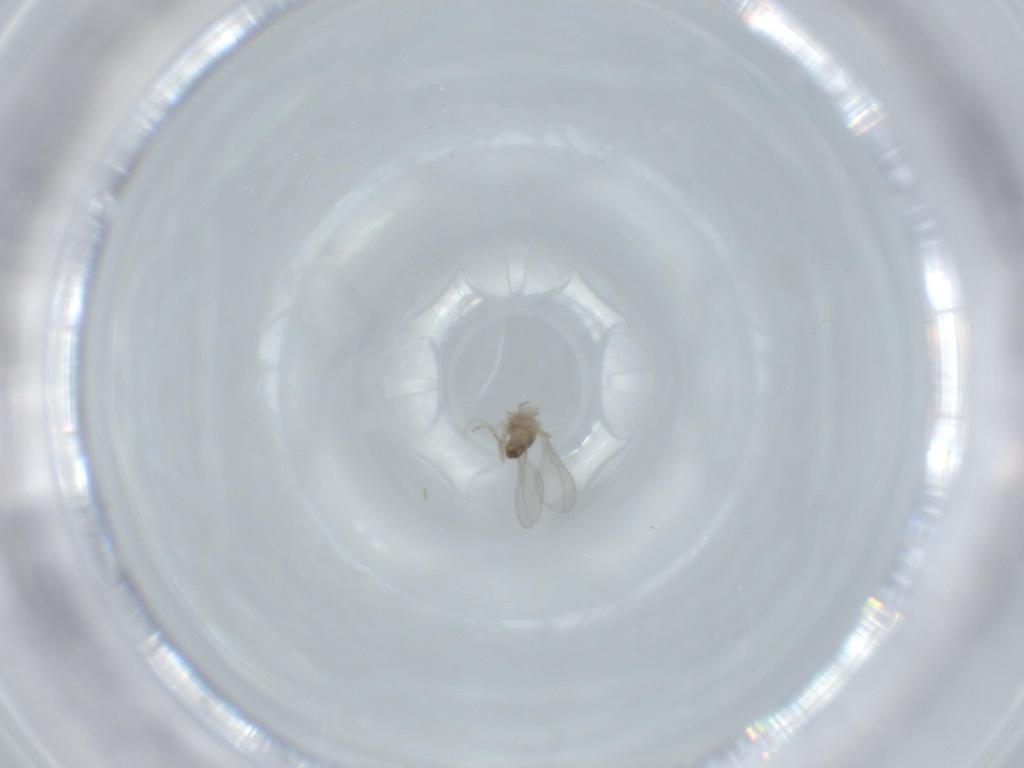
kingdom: Animalia
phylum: Arthropoda
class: Insecta
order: Diptera
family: Cecidomyiidae
